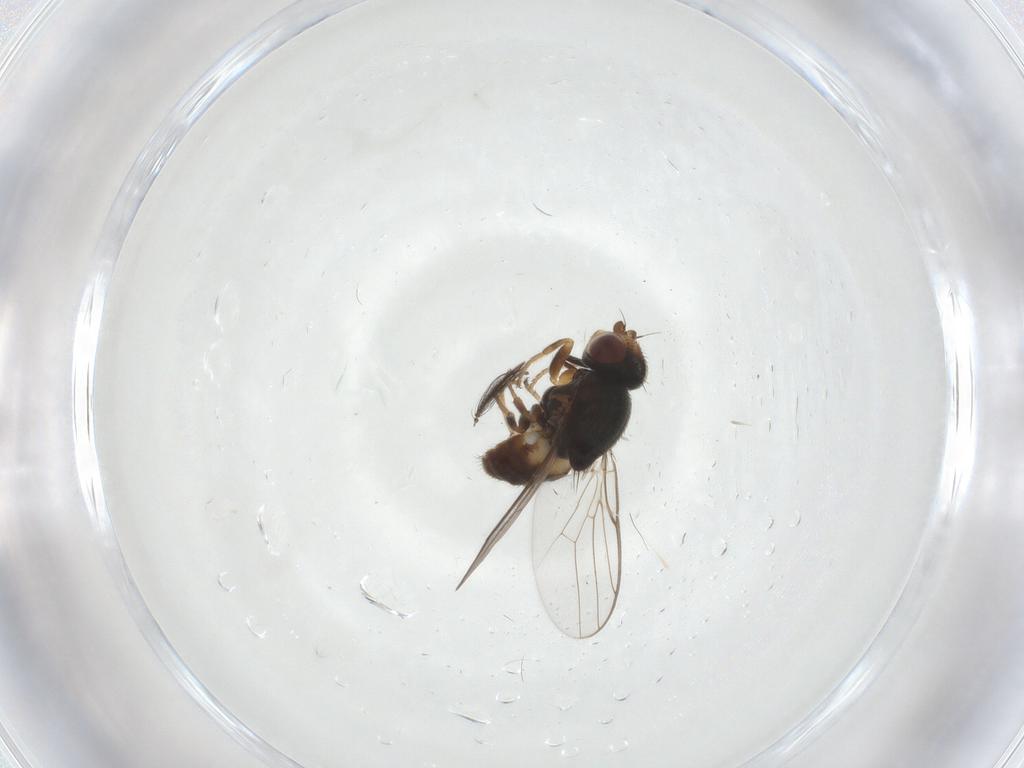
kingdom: Animalia
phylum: Arthropoda
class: Insecta
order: Diptera
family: Chloropidae
